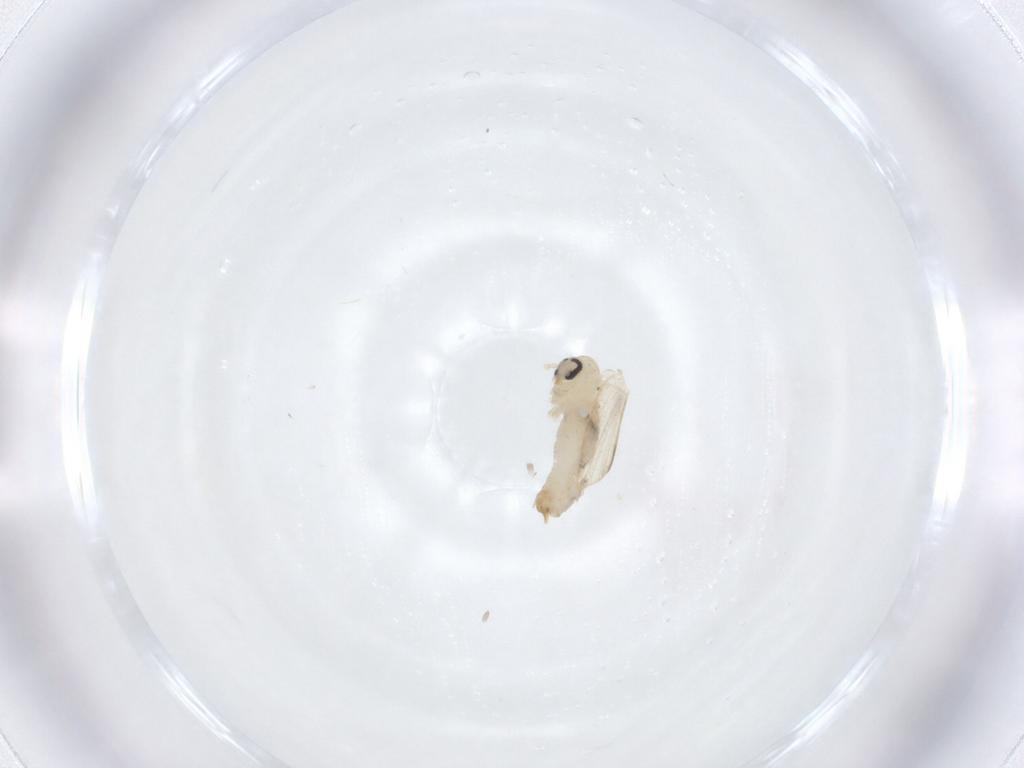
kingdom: Animalia
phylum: Arthropoda
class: Insecta
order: Diptera
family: Psychodidae
